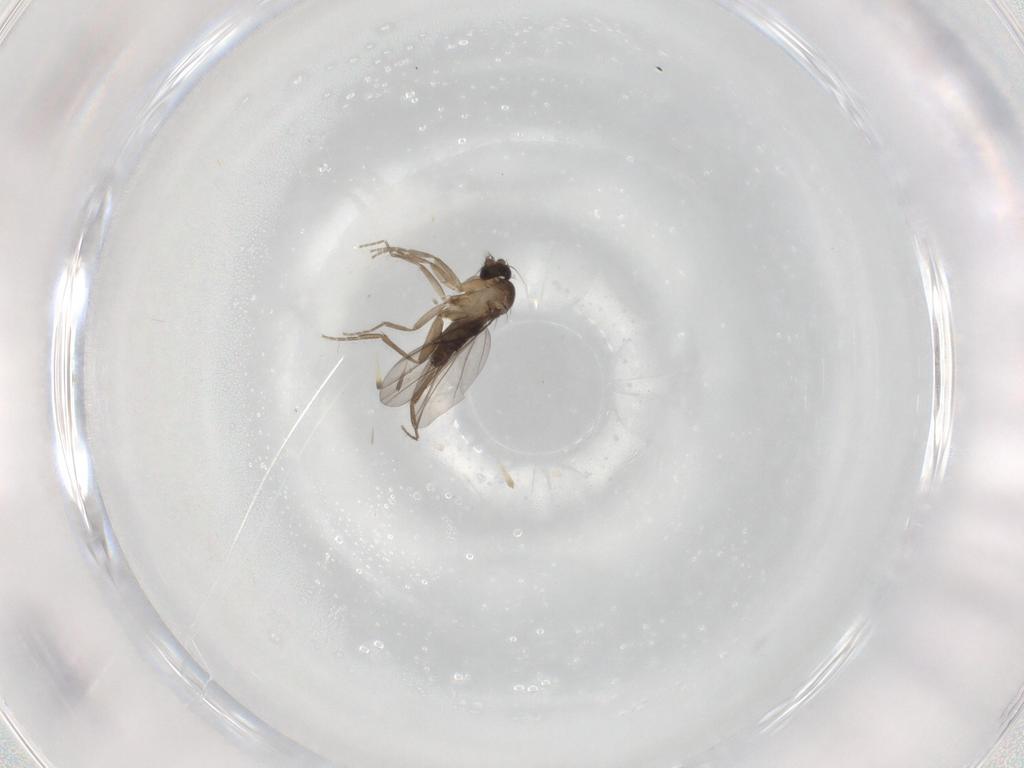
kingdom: Animalia
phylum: Arthropoda
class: Insecta
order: Diptera
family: Phoridae
